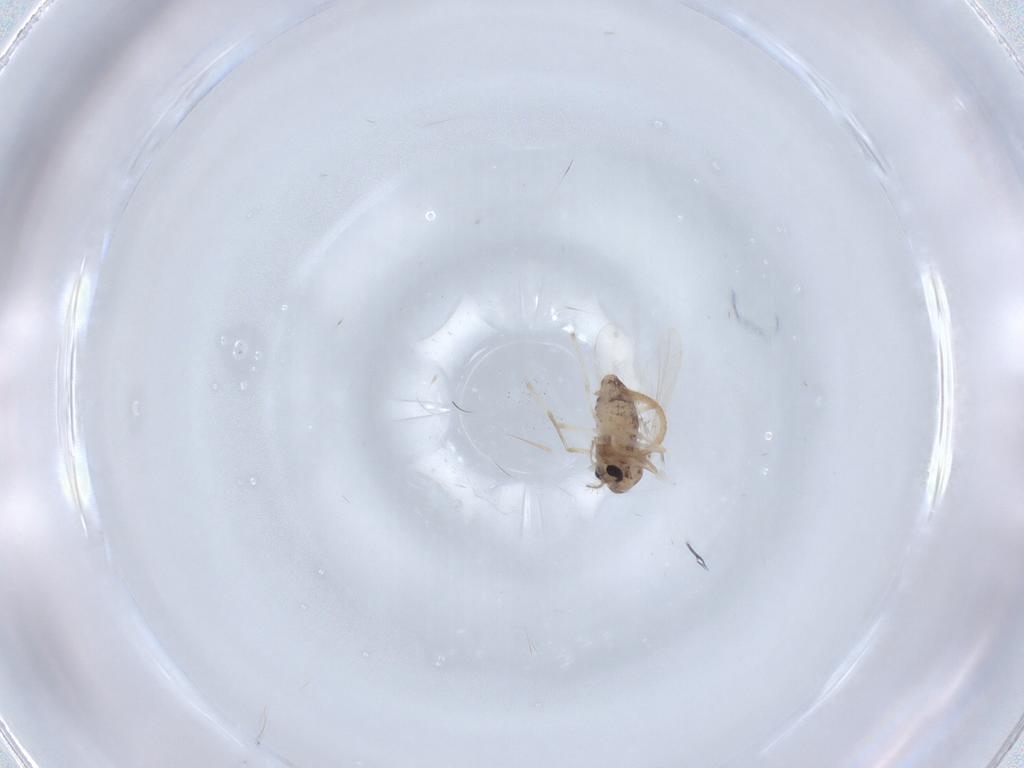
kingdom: Animalia
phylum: Arthropoda
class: Insecta
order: Diptera
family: Chironomidae
